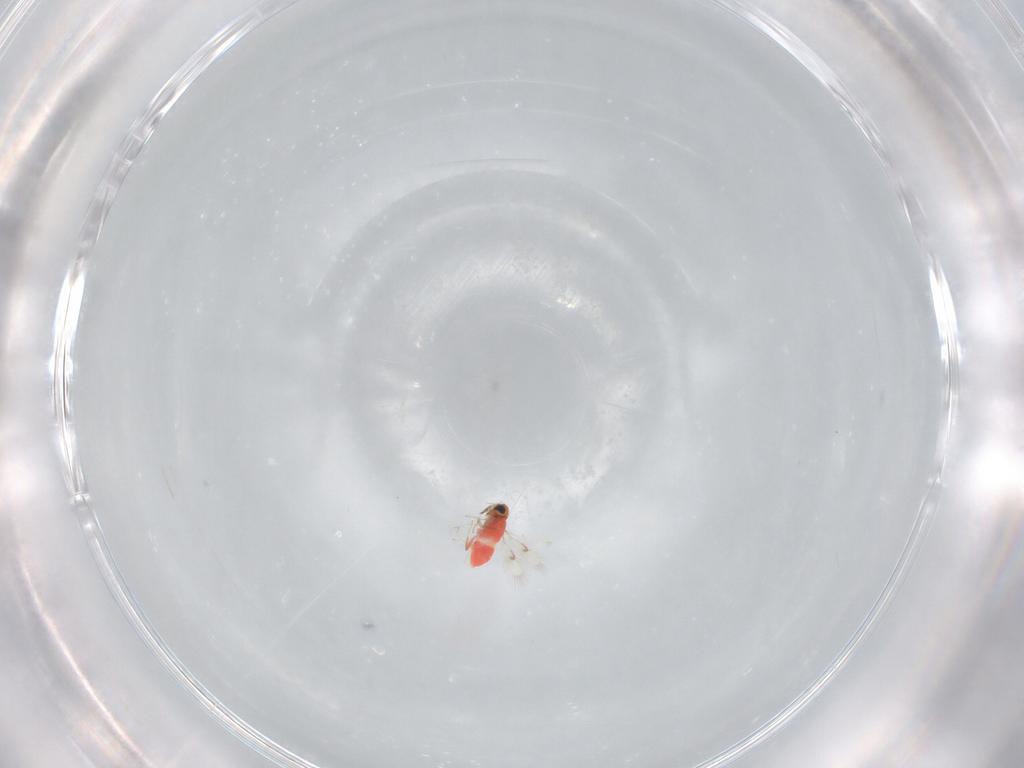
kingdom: Animalia
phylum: Arthropoda
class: Insecta
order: Hymenoptera
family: Trichogrammatidae
